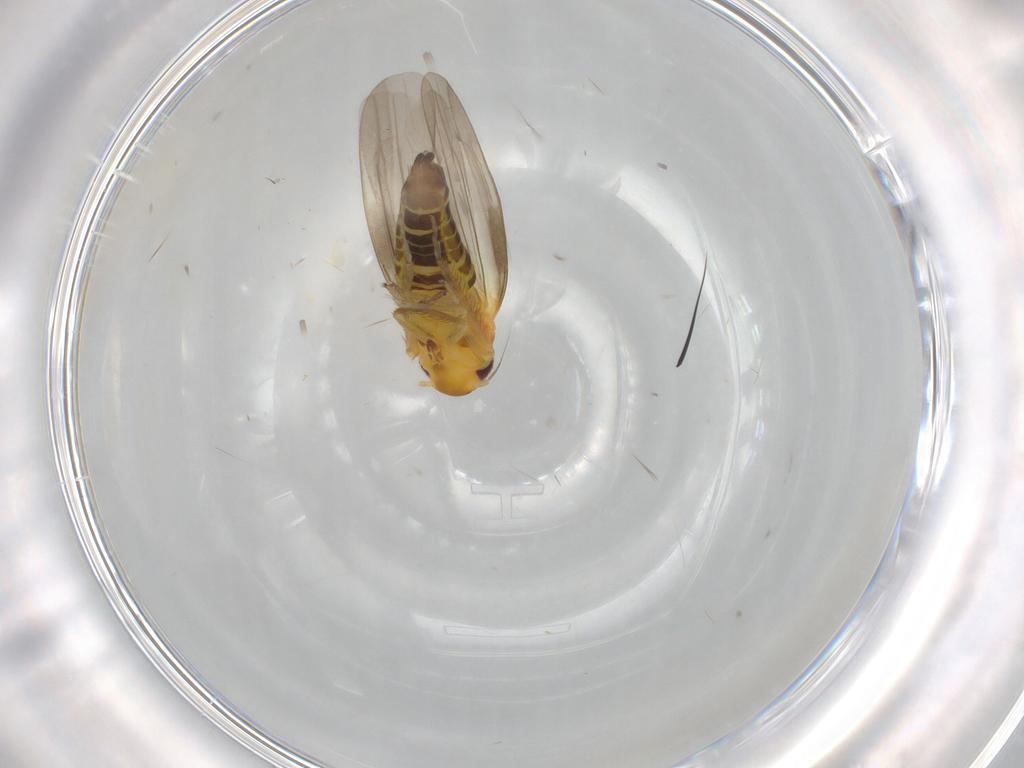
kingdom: Animalia
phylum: Arthropoda
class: Insecta
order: Hemiptera
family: Cicadellidae
